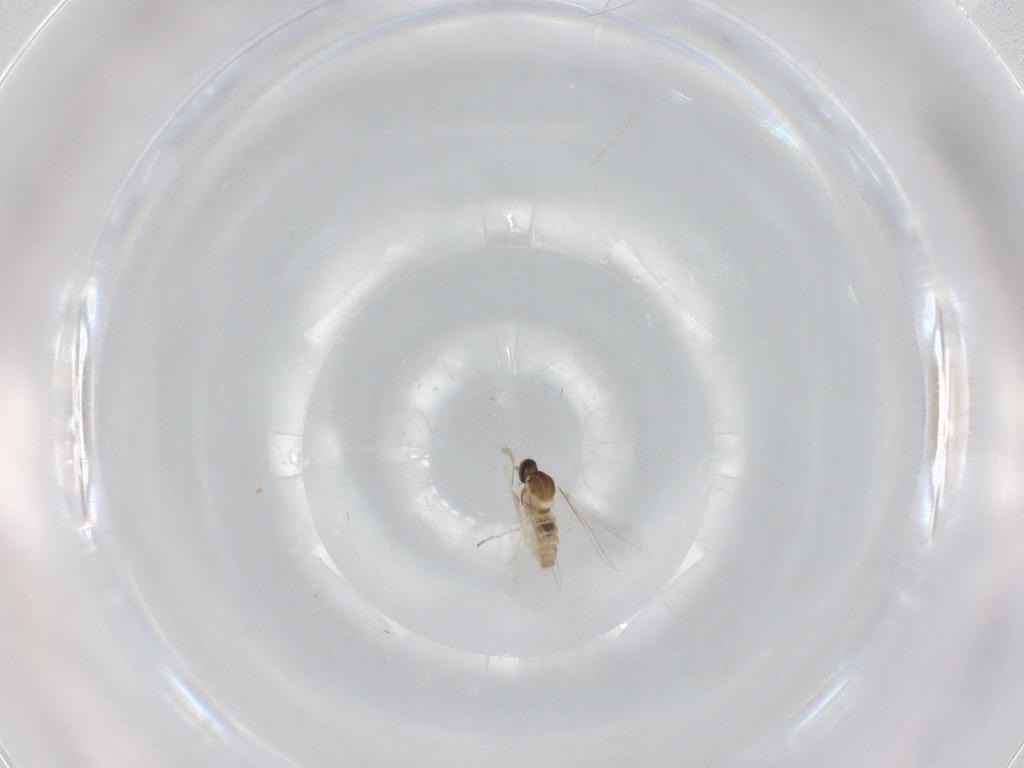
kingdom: Animalia
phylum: Arthropoda
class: Insecta
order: Diptera
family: Cecidomyiidae
